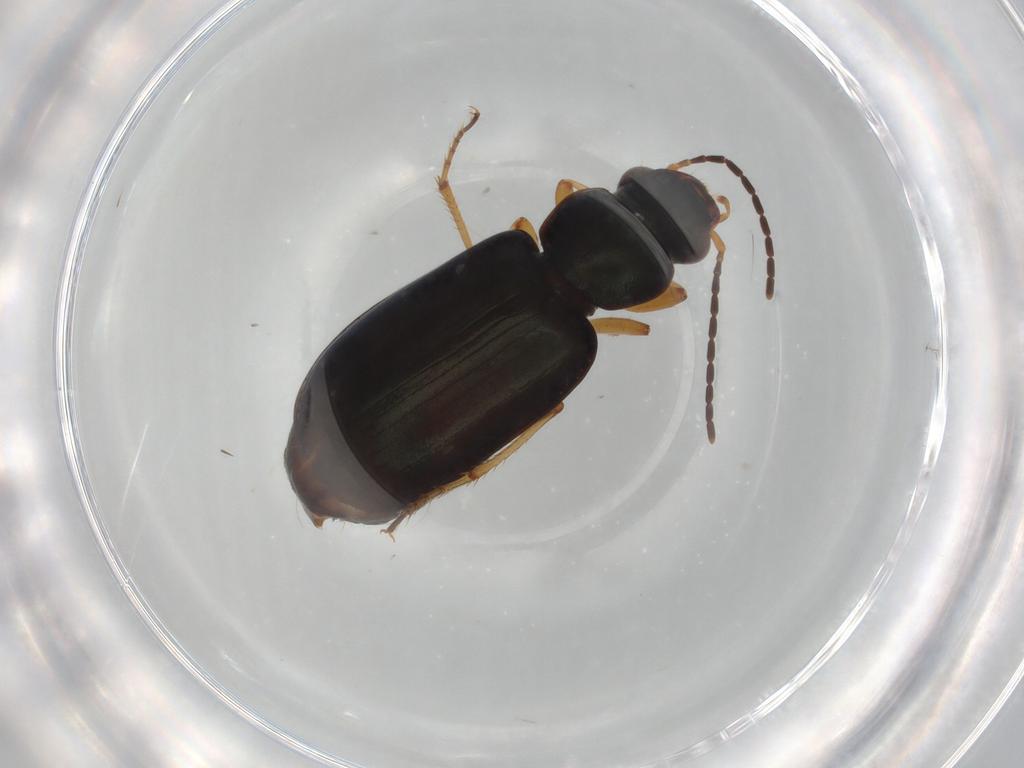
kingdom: Animalia
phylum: Arthropoda
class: Insecta
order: Coleoptera
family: Carabidae
